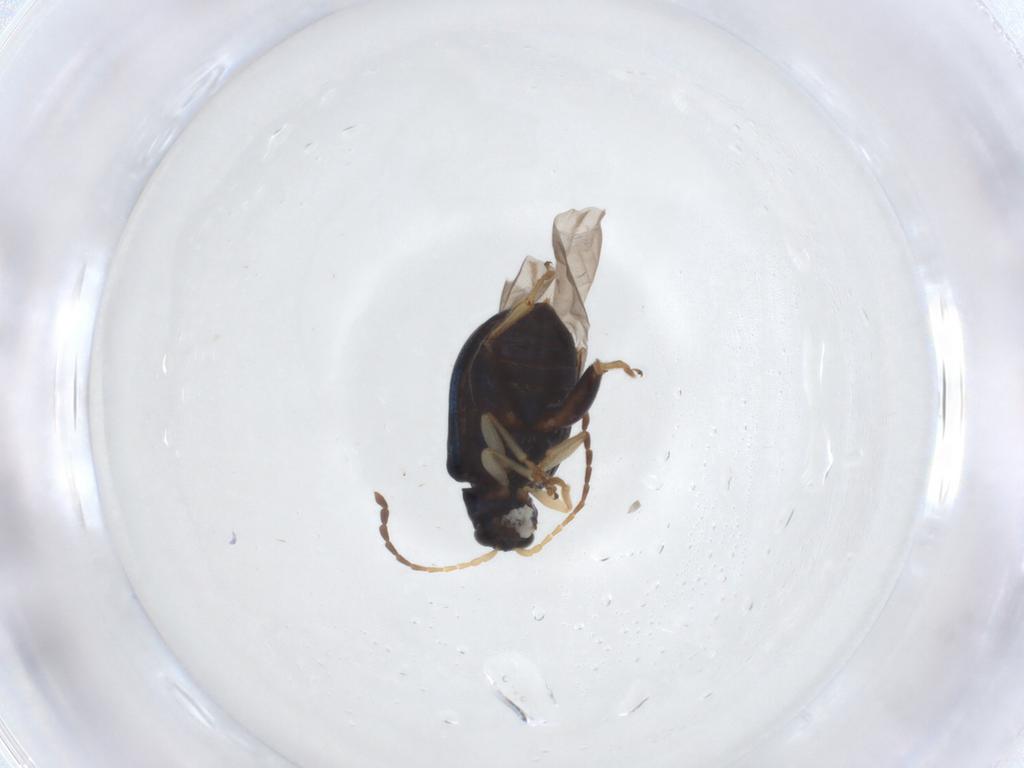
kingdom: Animalia
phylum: Arthropoda
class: Insecta
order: Coleoptera
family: Chrysomelidae
